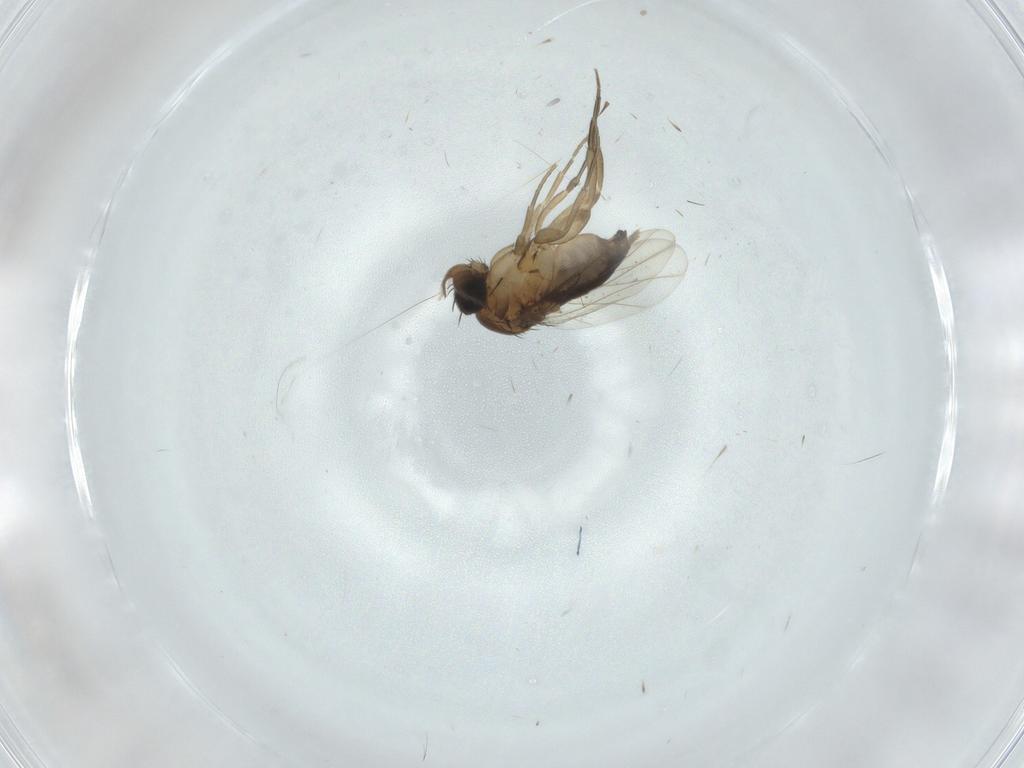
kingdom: Animalia
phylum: Arthropoda
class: Insecta
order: Diptera
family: Phoridae
